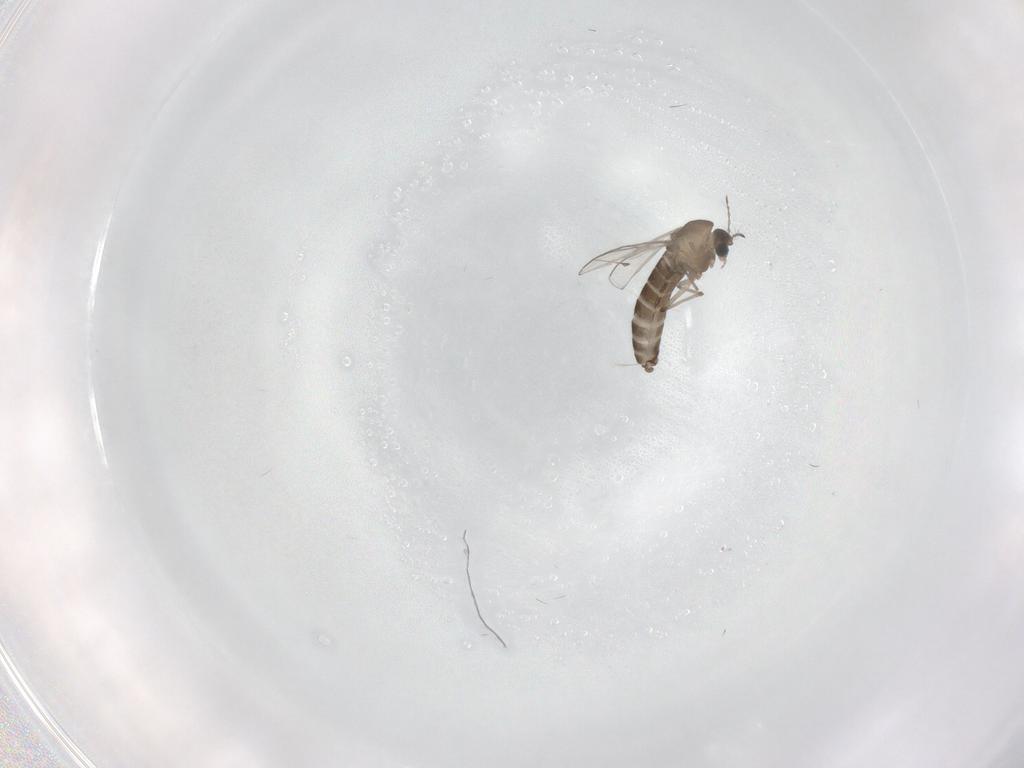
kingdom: Animalia
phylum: Arthropoda
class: Insecta
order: Diptera
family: Chironomidae
